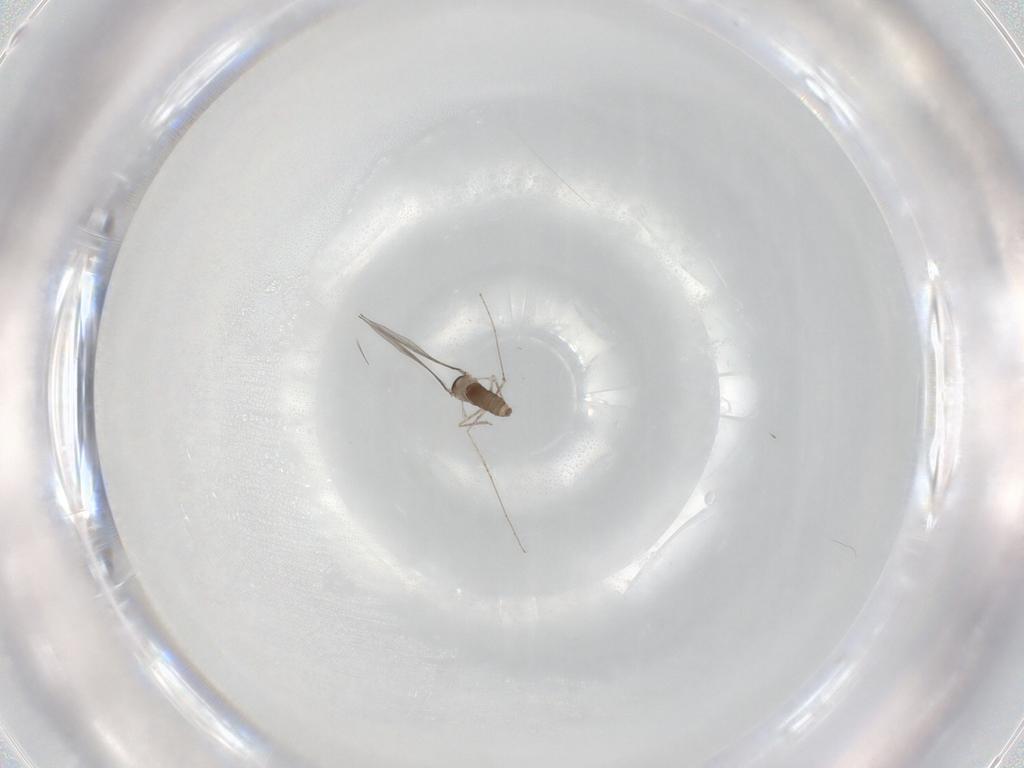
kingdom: Animalia
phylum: Arthropoda
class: Insecta
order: Diptera
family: Cecidomyiidae
